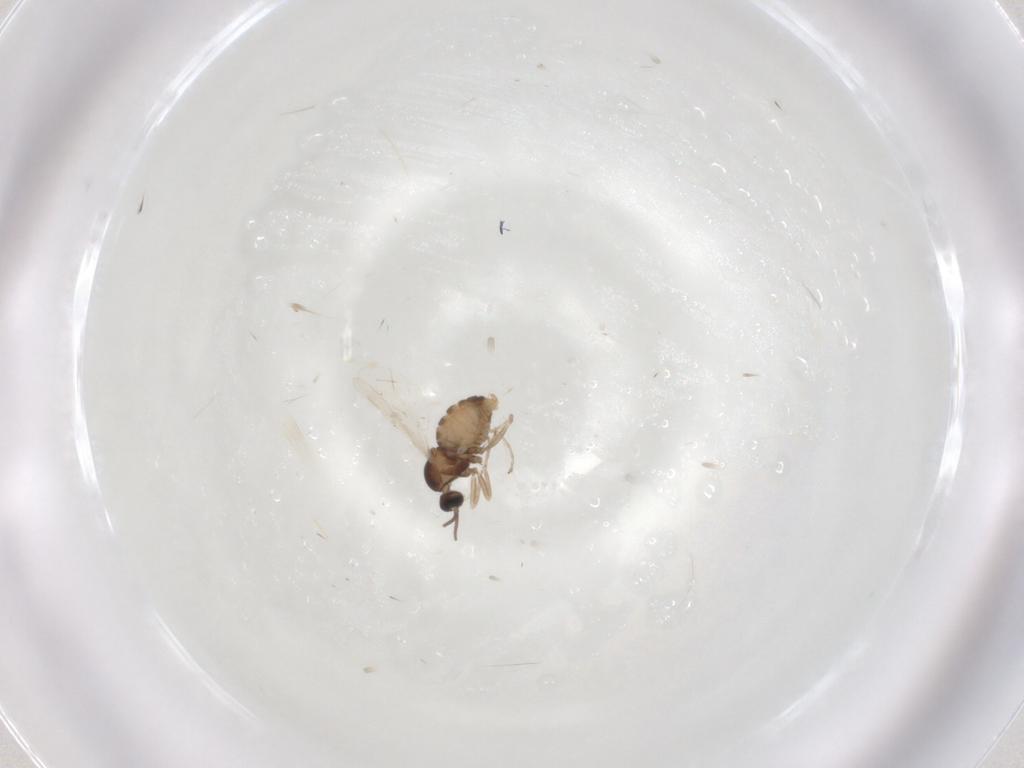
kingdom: Animalia
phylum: Arthropoda
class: Insecta
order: Diptera
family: Cecidomyiidae
